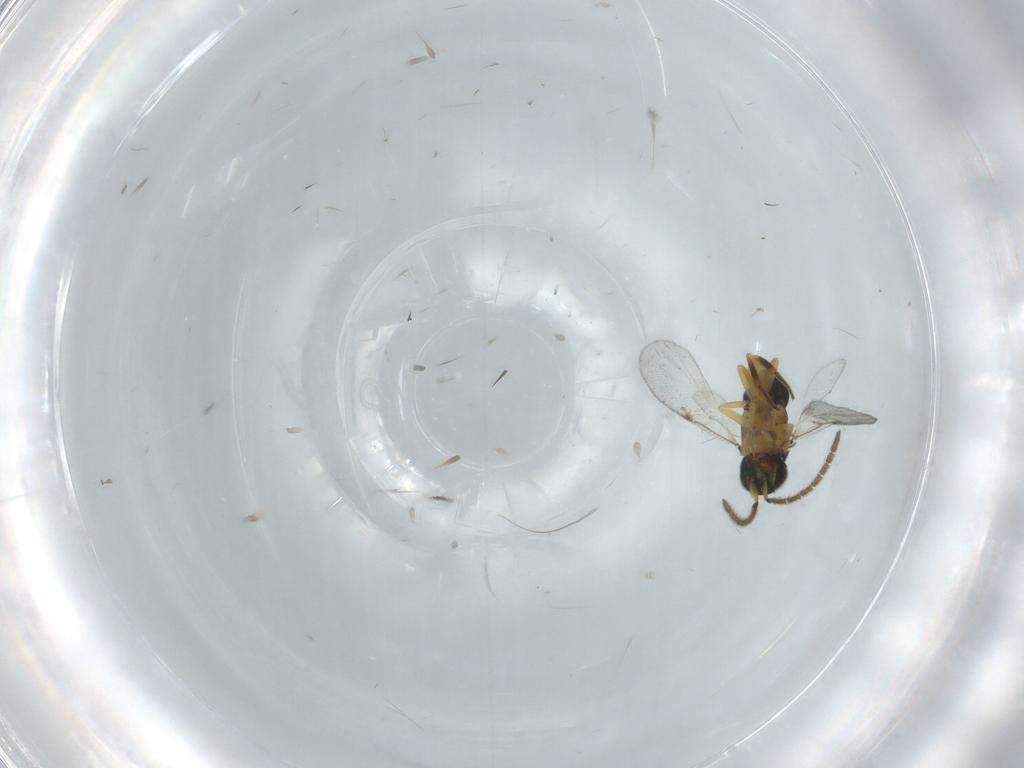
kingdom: Animalia
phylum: Arthropoda
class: Insecta
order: Hymenoptera
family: Encyrtidae
